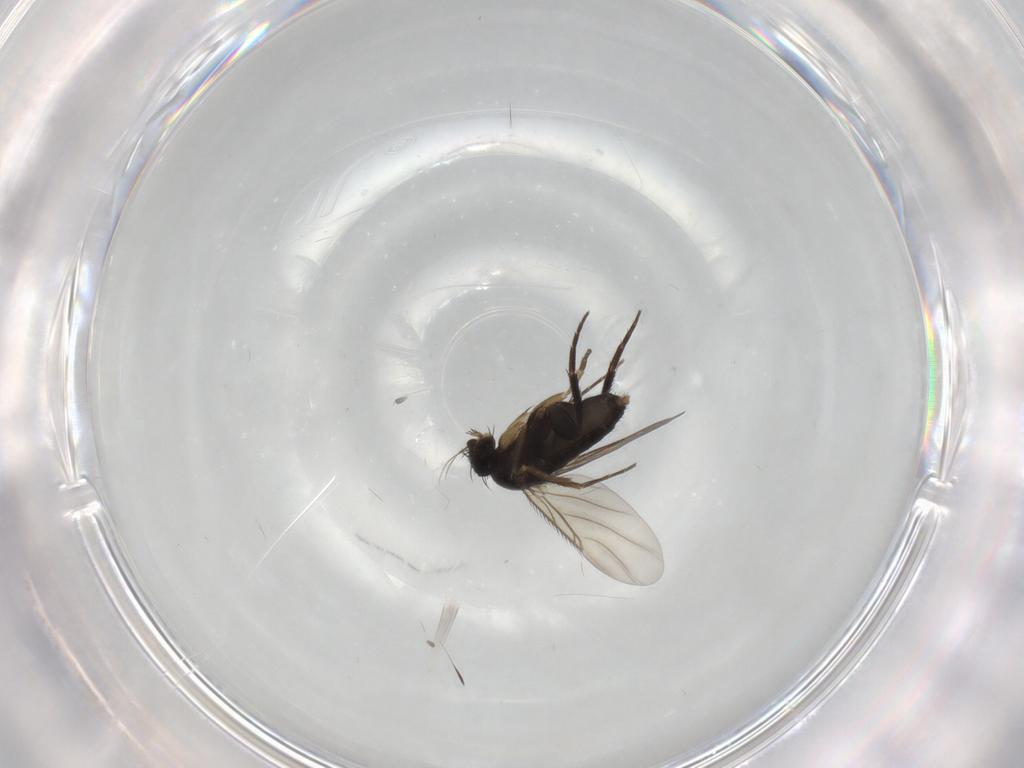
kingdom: Animalia
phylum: Arthropoda
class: Insecta
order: Diptera
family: Phoridae
